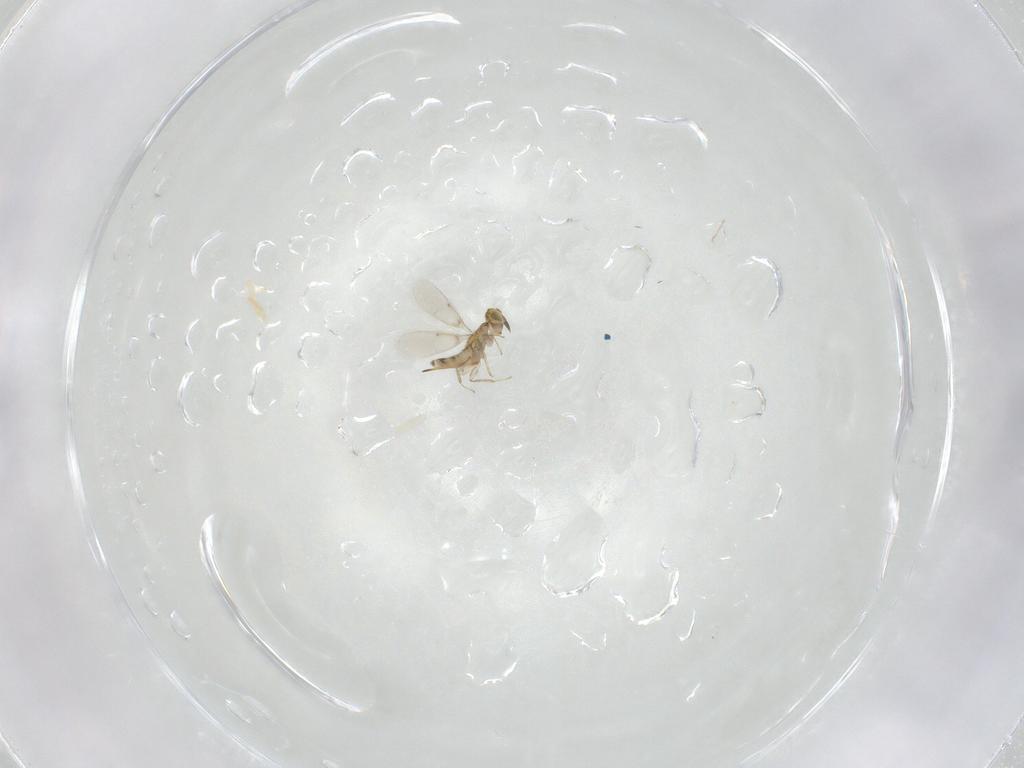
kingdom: Animalia
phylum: Arthropoda
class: Insecta
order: Hymenoptera
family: Aphelinidae
